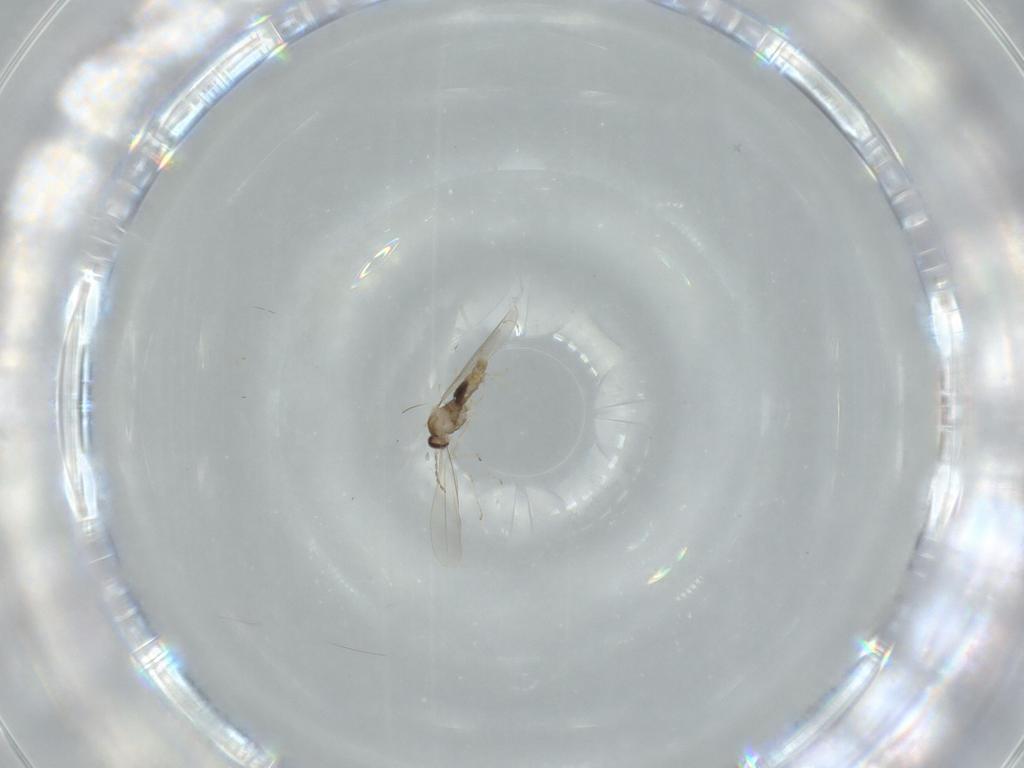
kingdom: Animalia
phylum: Arthropoda
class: Insecta
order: Diptera
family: Cecidomyiidae
